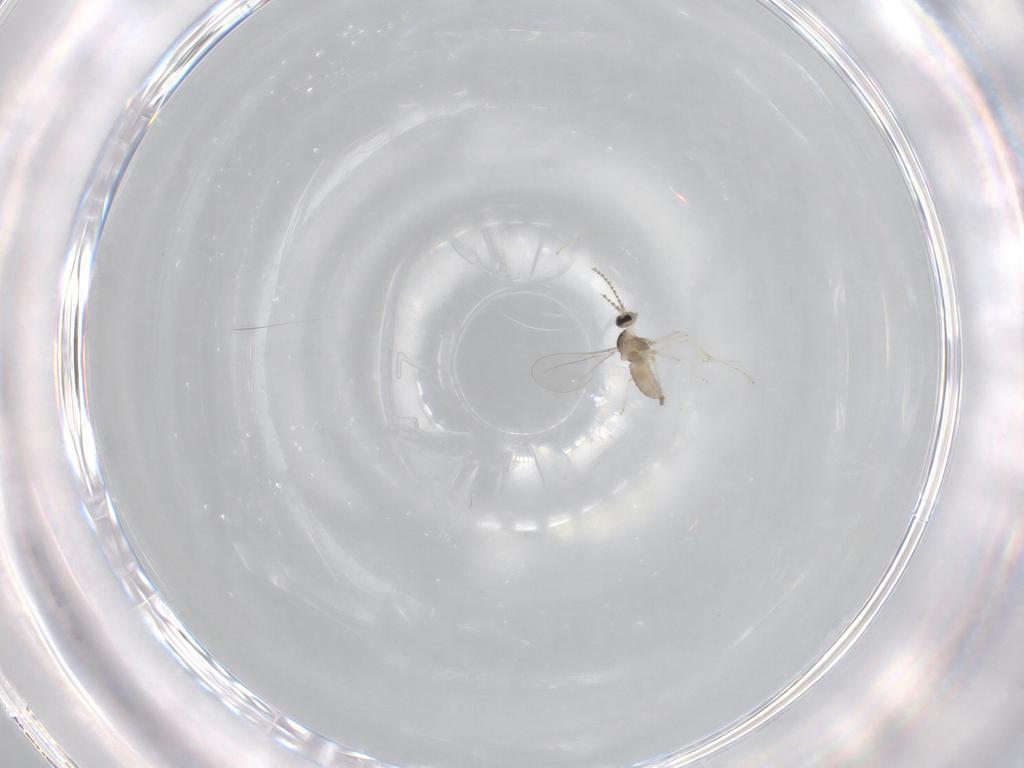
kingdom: Animalia
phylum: Arthropoda
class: Insecta
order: Diptera
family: Cecidomyiidae
